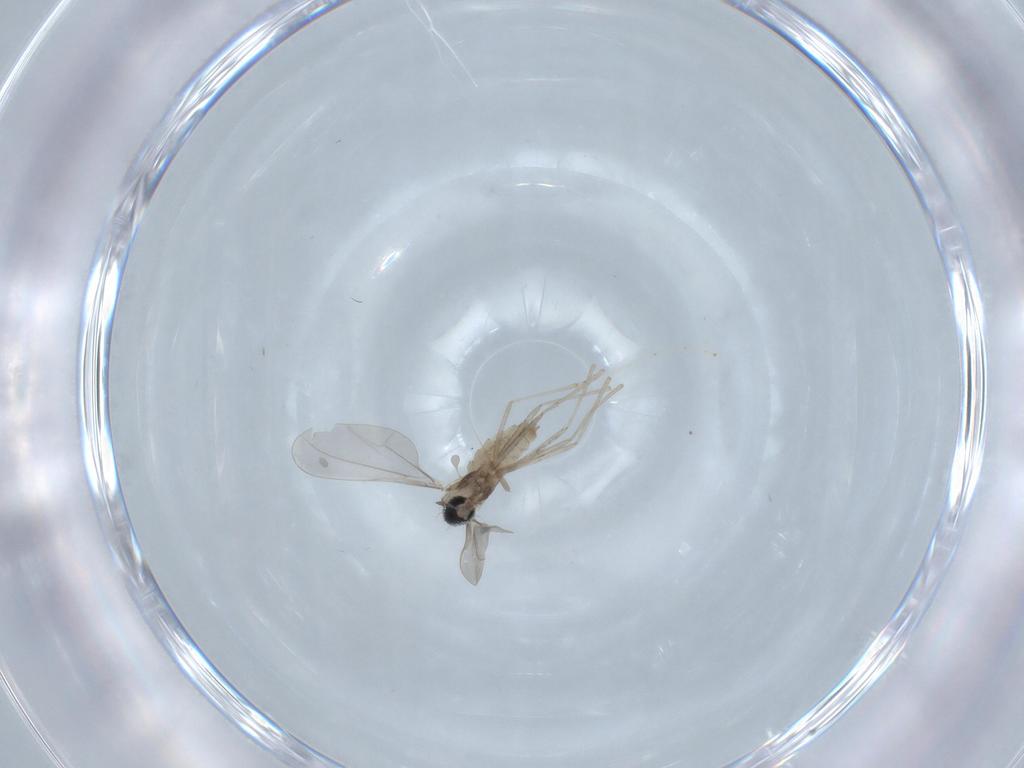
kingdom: Animalia
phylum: Arthropoda
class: Insecta
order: Diptera
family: Cecidomyiidae
